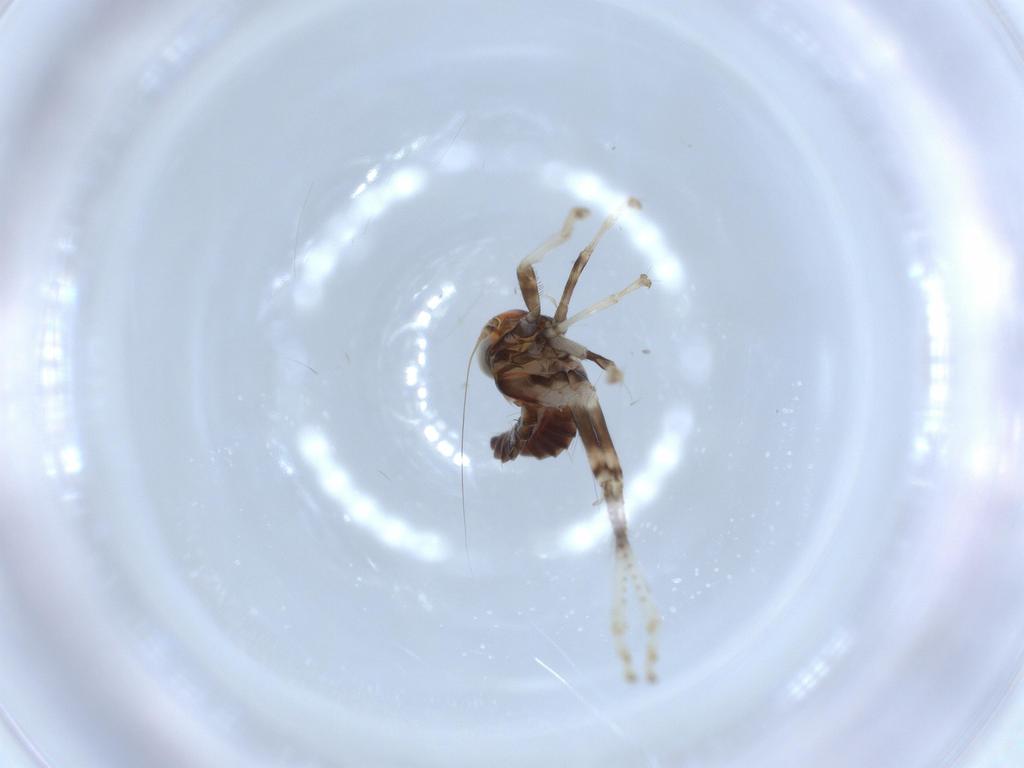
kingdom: Animalia
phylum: Arthropoda
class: Insecta
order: Hemiptera
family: Cicadellidae
